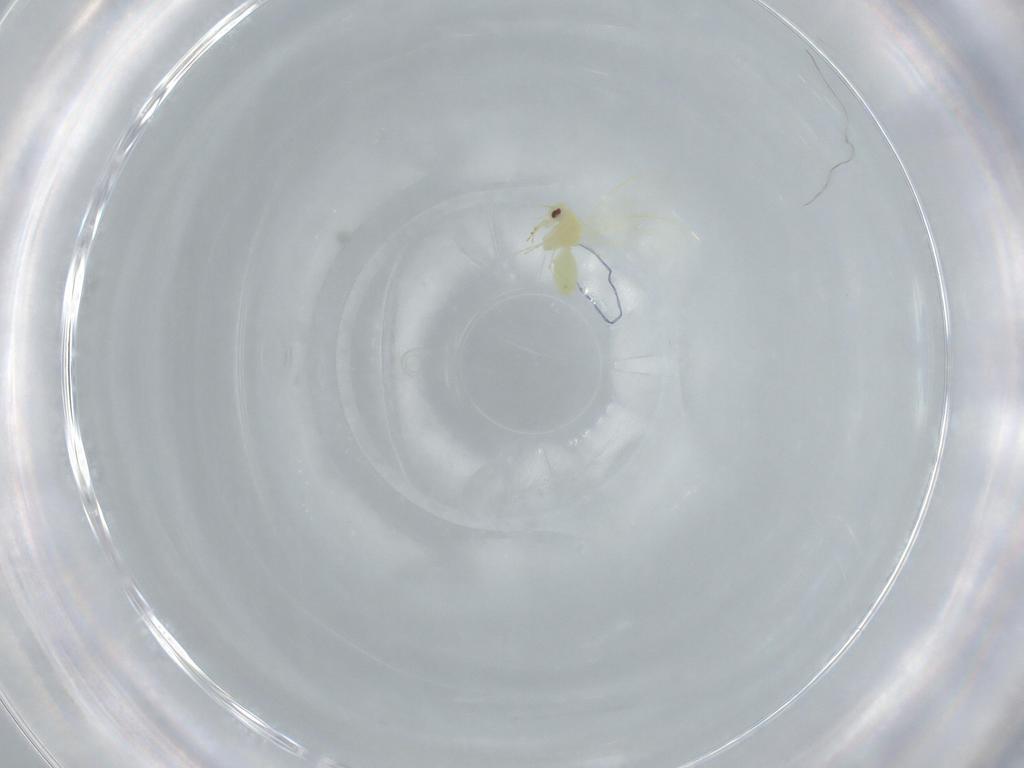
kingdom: Animalia
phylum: Arthropoda
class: Insecta
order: Hemiptera
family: Aleyrodidae
